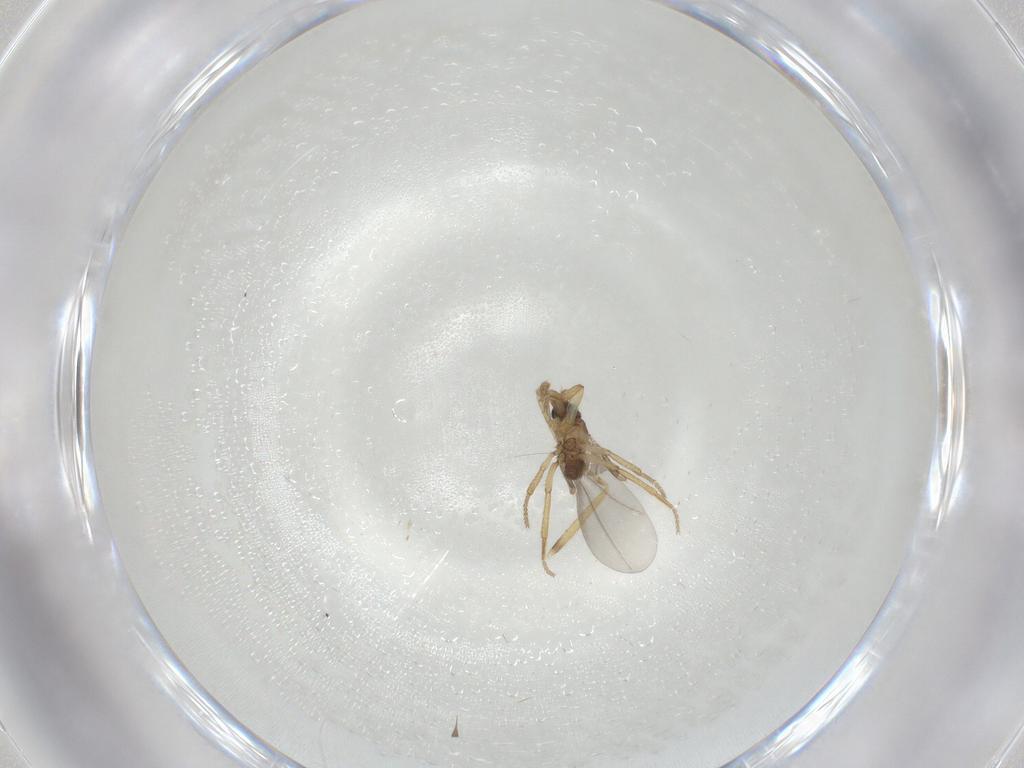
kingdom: Animalia
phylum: Arthropoda
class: Insecta
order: Diptera
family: Phoridae
